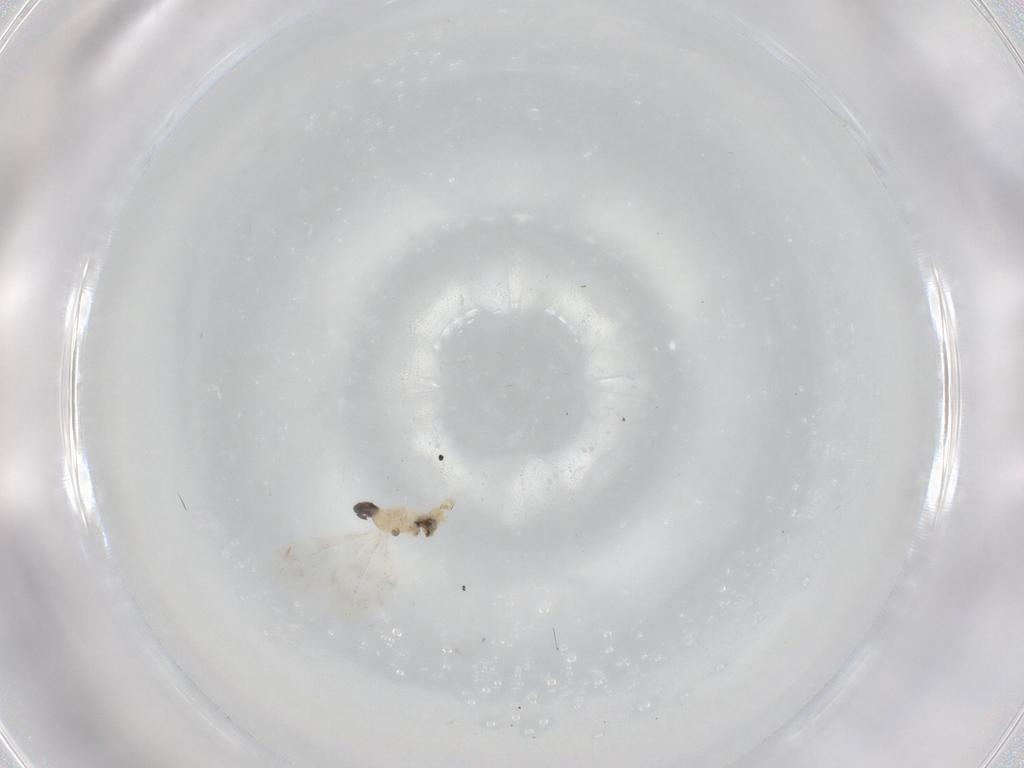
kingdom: Animalia
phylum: Arthropoda
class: Insecta
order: Diptera
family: Cecidomyiidae
